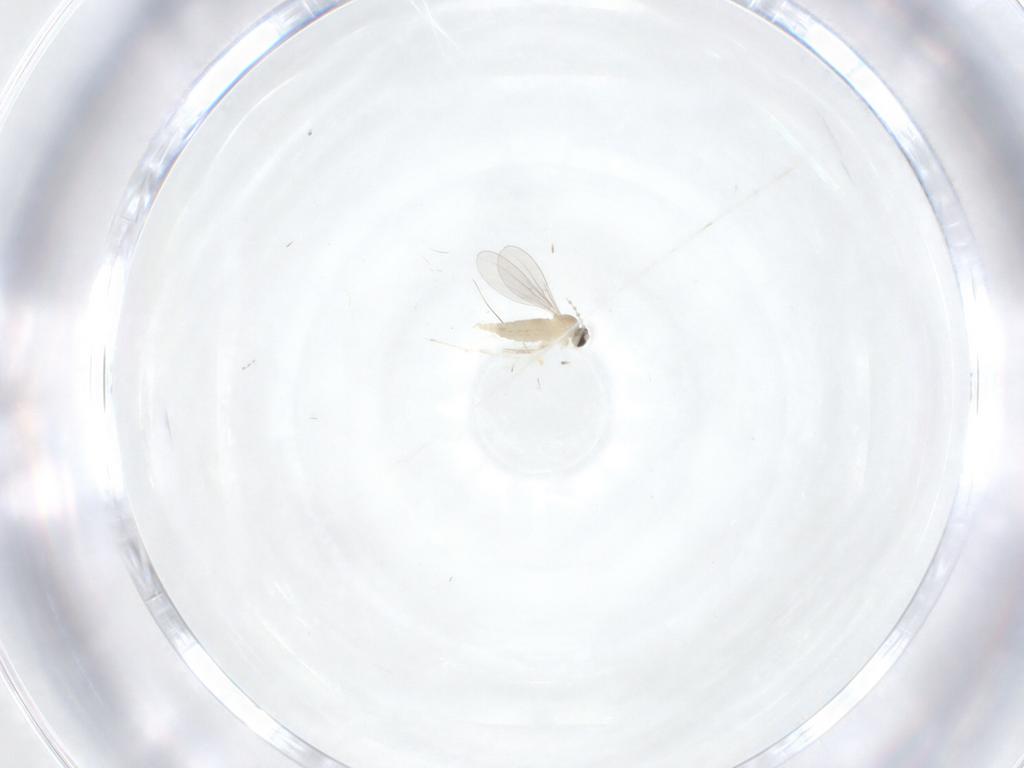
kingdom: Animalia
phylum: Arthropoda
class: Insecta
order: Diptera
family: Cecidomyiidae
